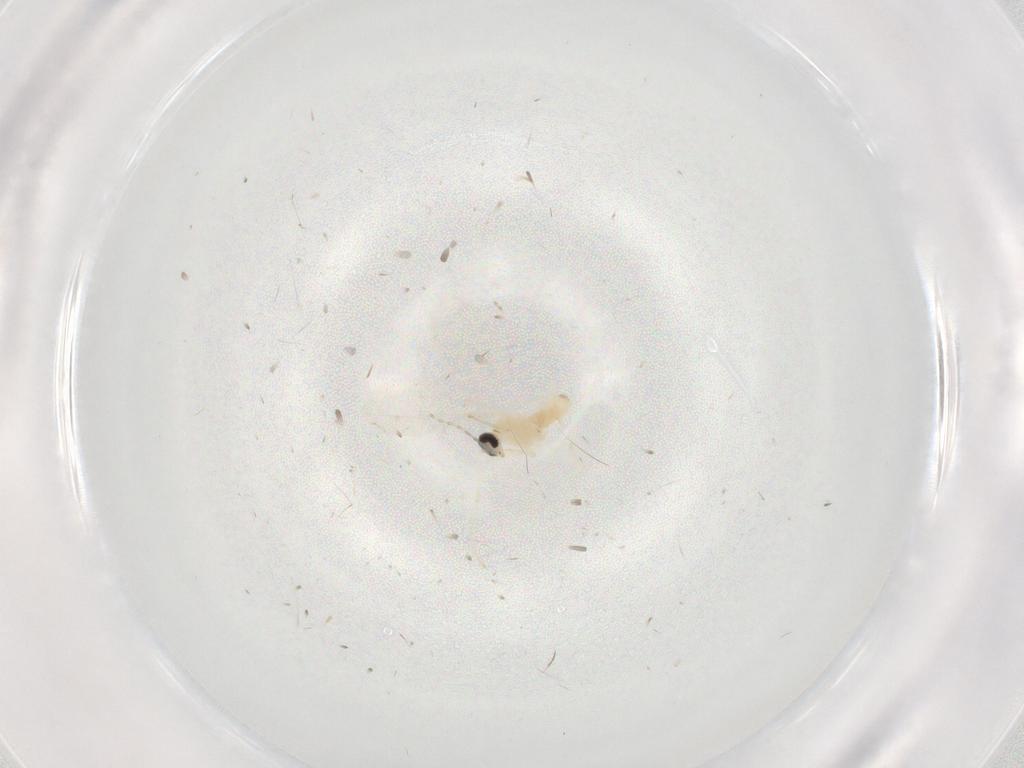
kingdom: Animalia
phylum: Arthropoda
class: Insecta
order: Diptera
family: Cecidomyiidae
